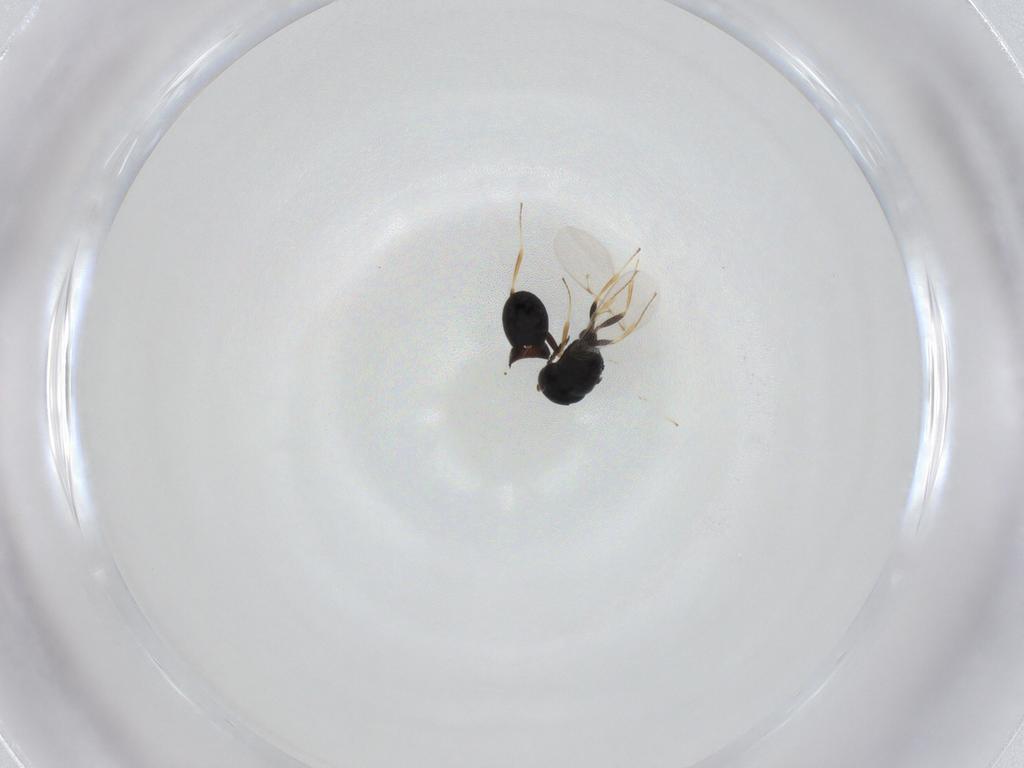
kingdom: Animalia
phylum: Arthropoda
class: Insecta
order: Hymenoptera
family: Scelionidae
